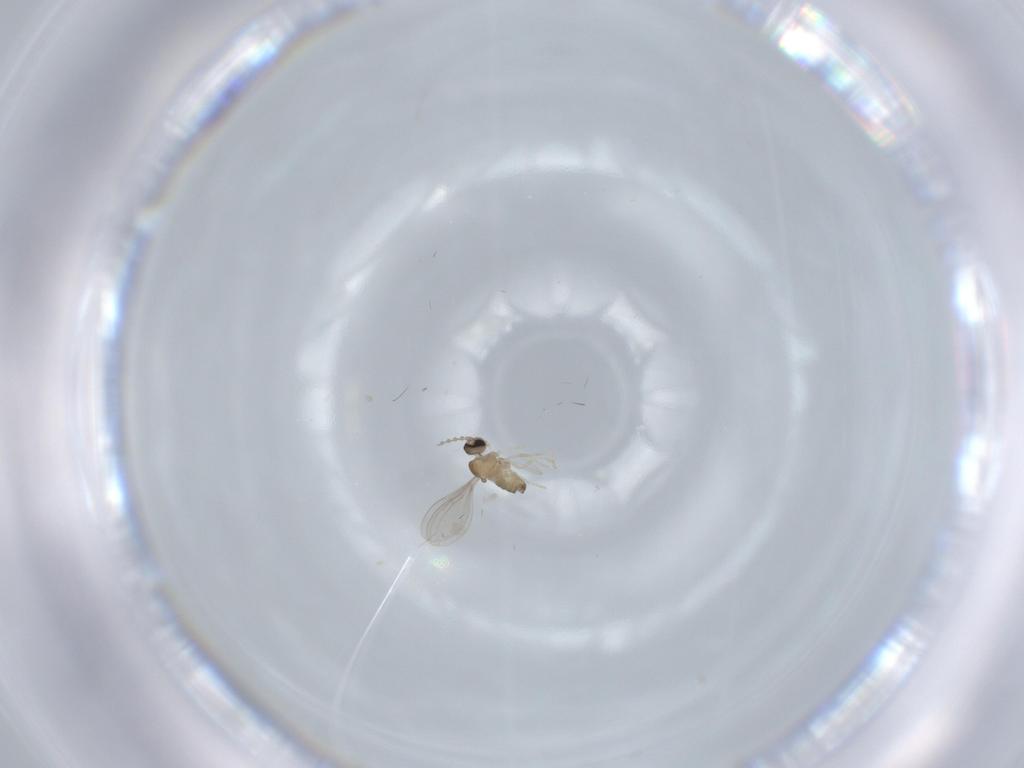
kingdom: Animalia
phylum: Arthropoda
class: Insecta
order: Diptera
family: Cecidomyiidae
